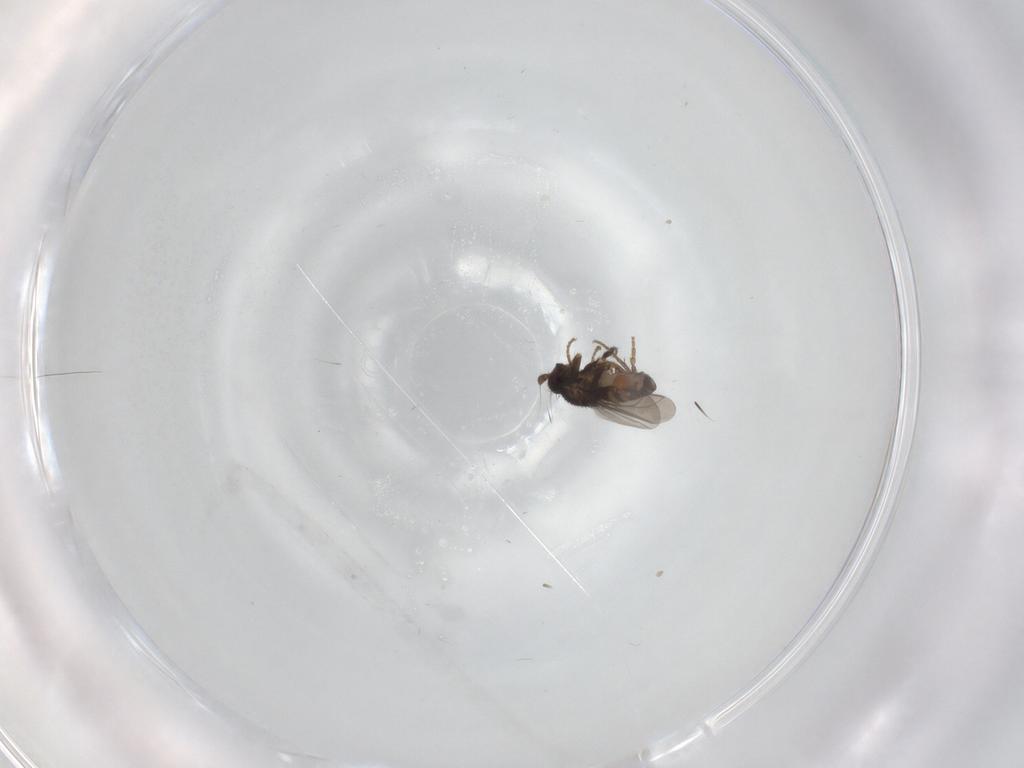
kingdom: Animalia
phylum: Arthropoda
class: Insecta
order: Diptera
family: Sphaeroceridae
